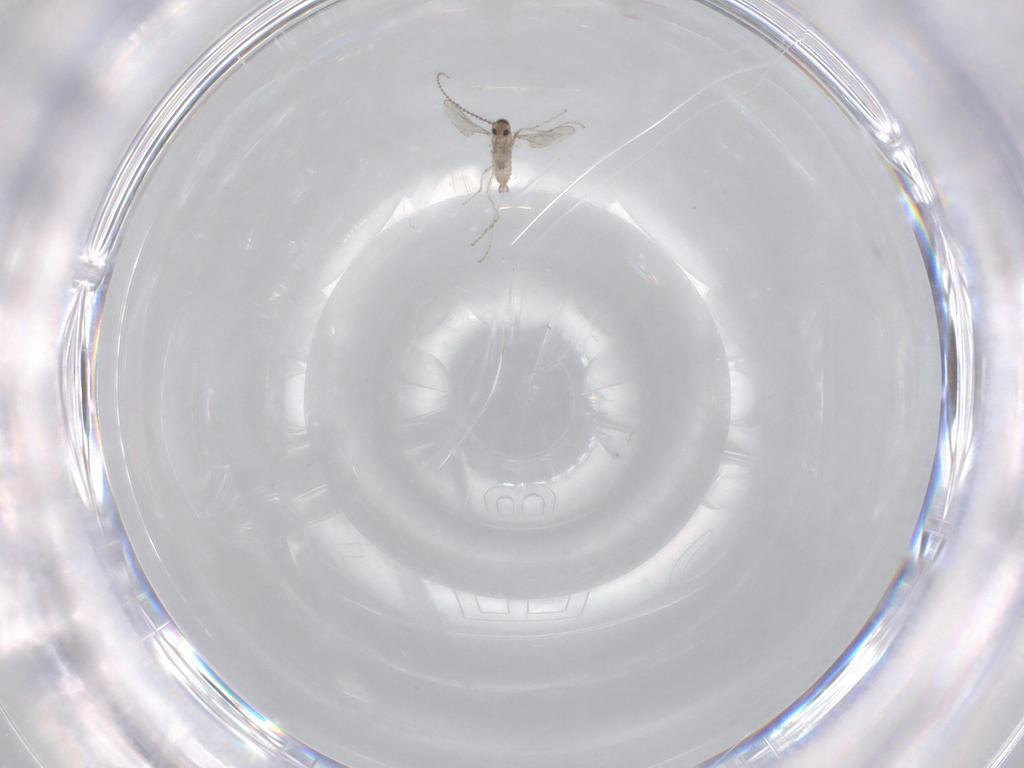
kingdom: Animalia
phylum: Arthropoda
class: Insecta
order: Diptera
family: Cecidomyiidae
